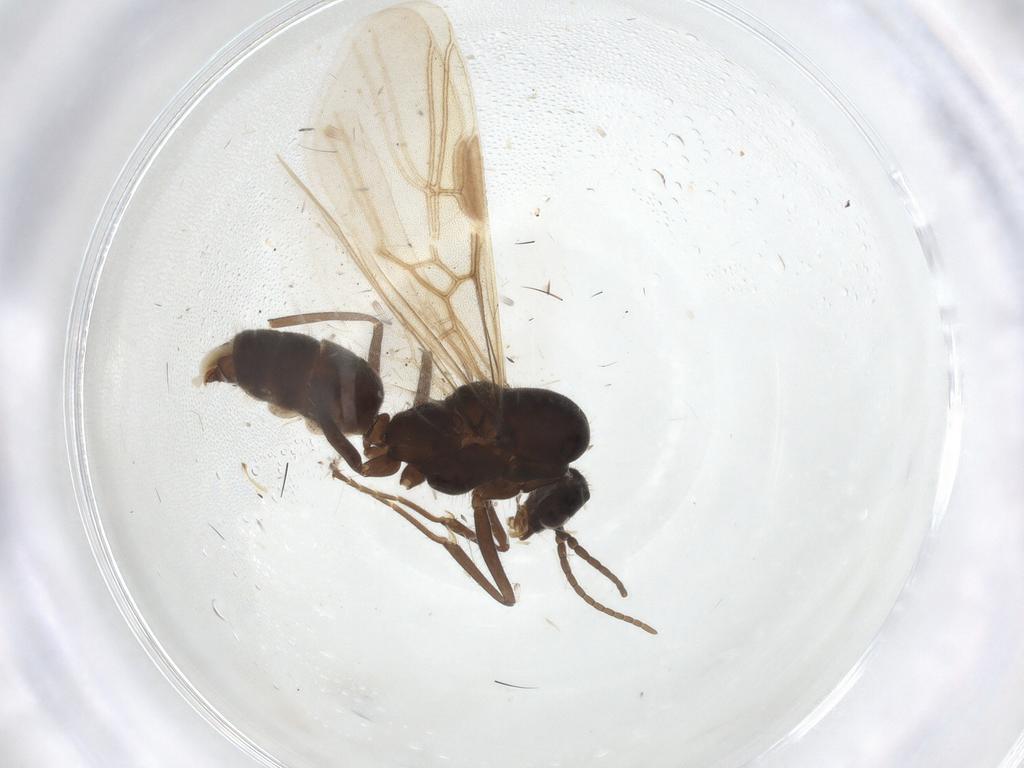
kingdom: Animalia
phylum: Arthropoda
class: Insecta
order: Hymenoptera
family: Formicidae
